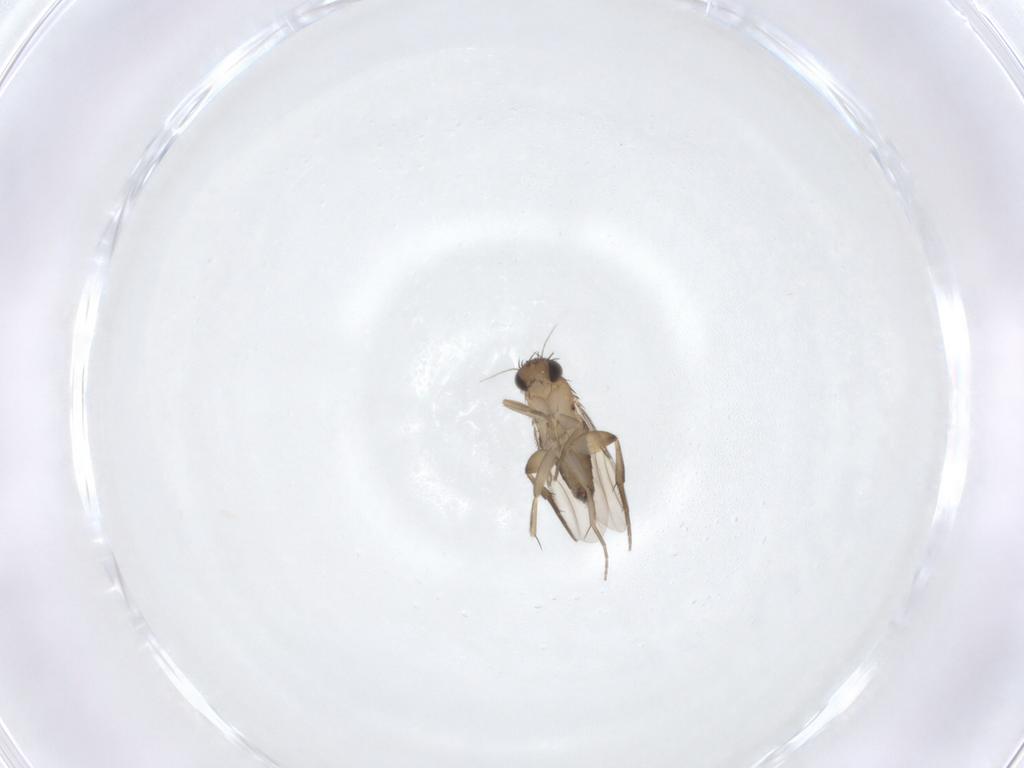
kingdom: Animalia
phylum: Arthropoda
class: Insecta
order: Diptera
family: Phoridae
